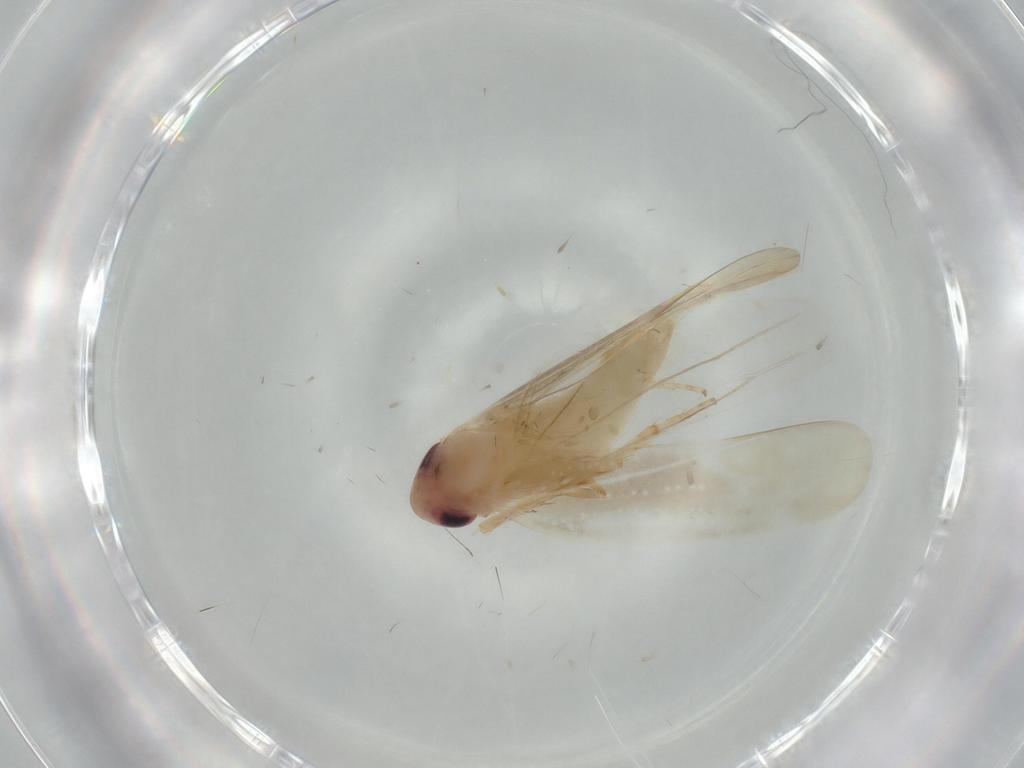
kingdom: Animalia
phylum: Arthropoda
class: Insecta
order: Hemiptera
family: Cicadellidae
